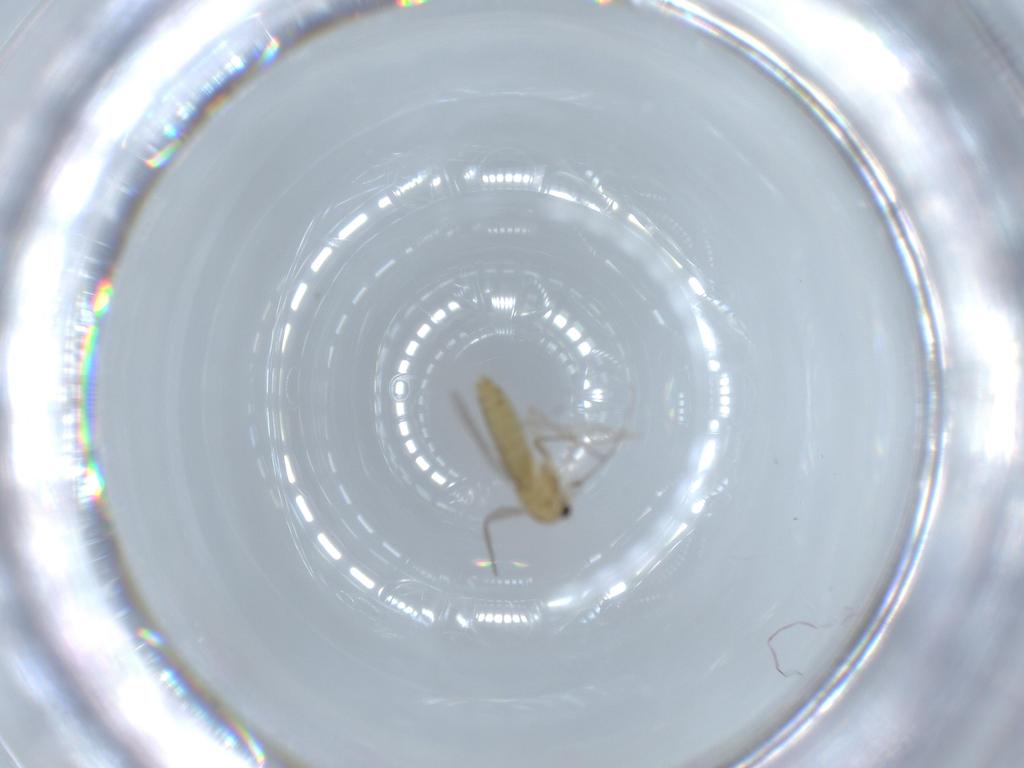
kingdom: Animalia
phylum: Arthropoda
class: Insecta
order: Diptera
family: Chironomidae
